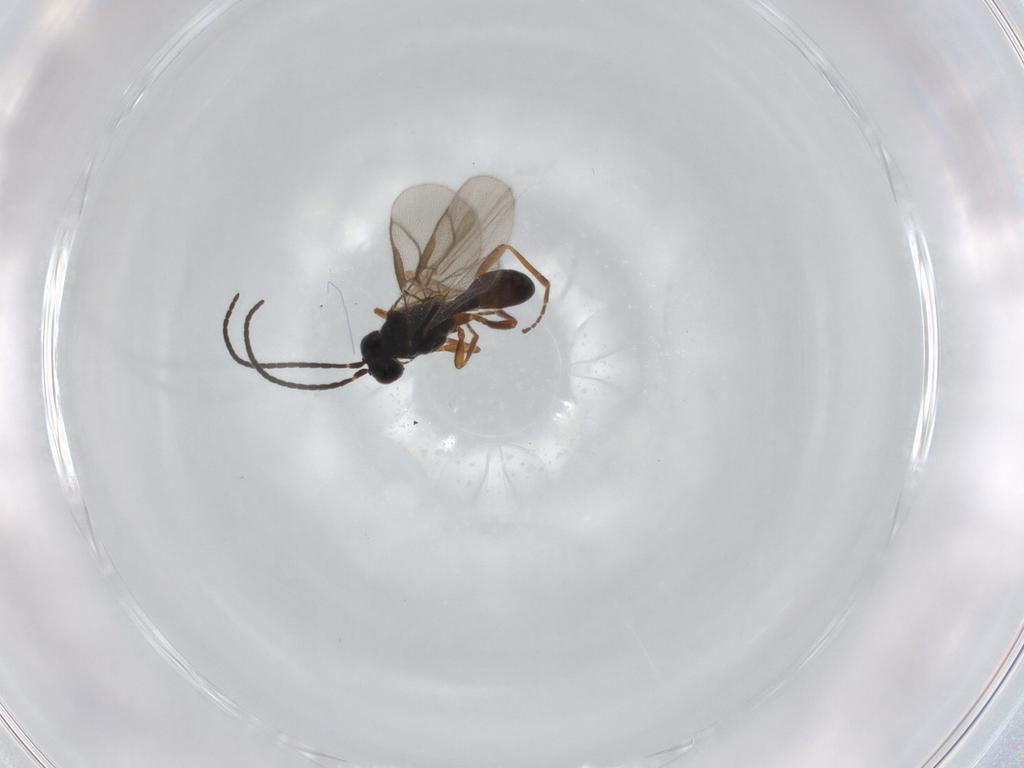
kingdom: Animalia
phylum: Arthropoda
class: Insecta
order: Hymenoptera
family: Braconidae
